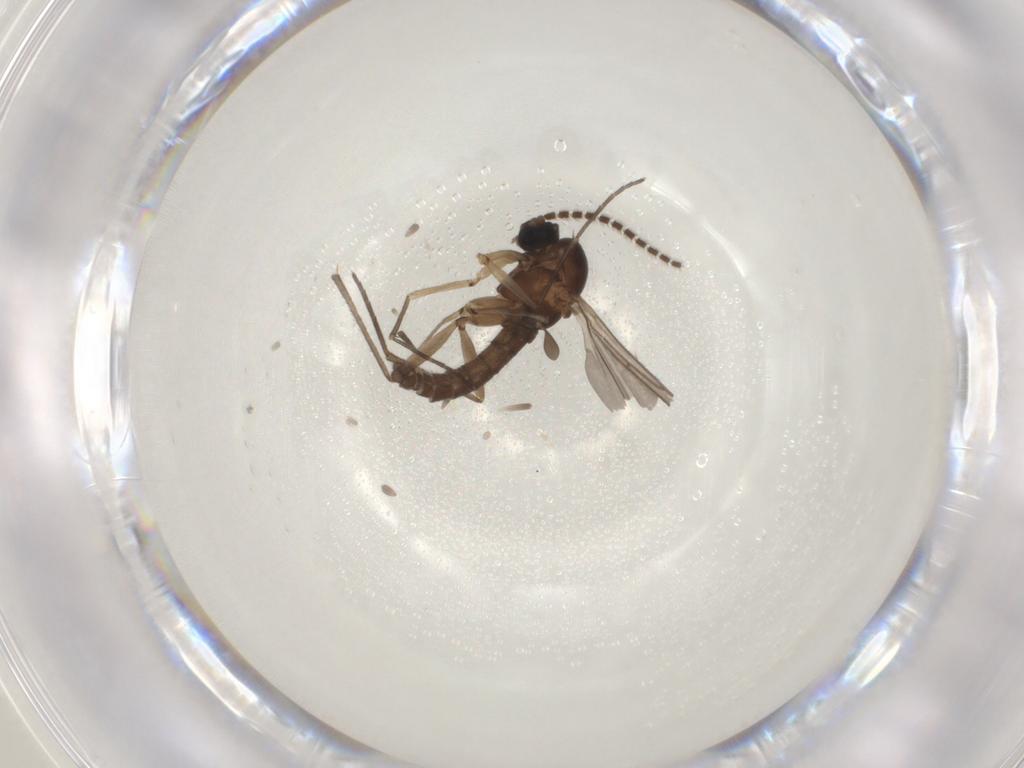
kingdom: Animalia
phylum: Arthropoda
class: Insecta
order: Diptera
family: Sciaridae
